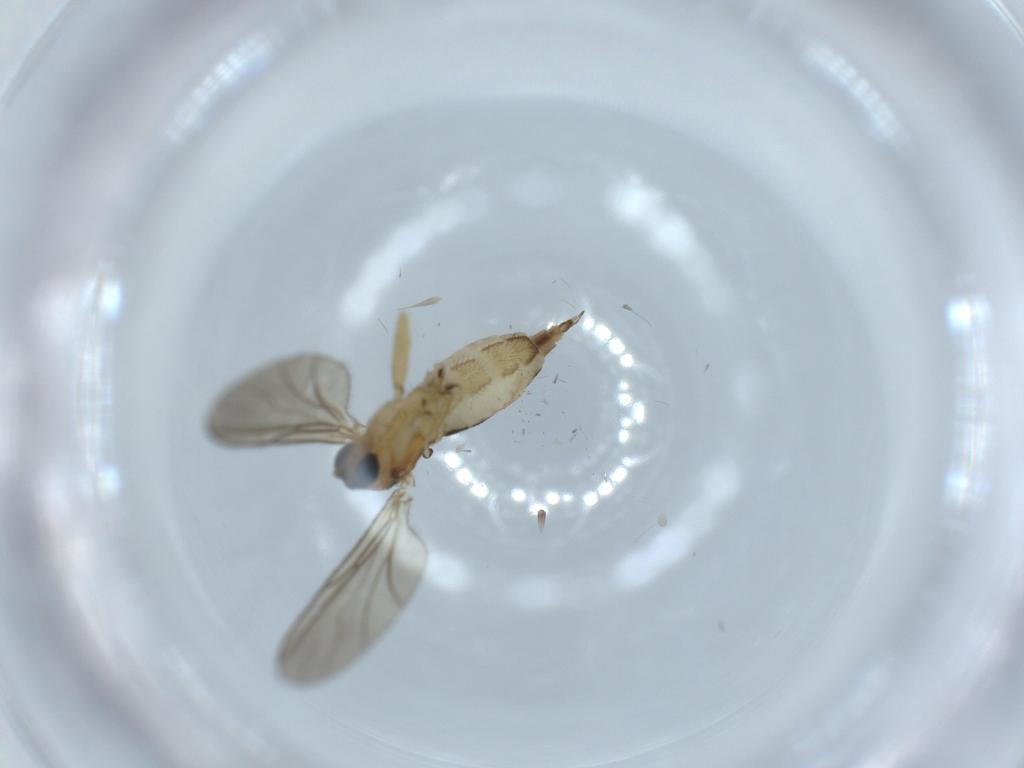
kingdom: Animalia
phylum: Arthropoda
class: Insecta
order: Diptera
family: Sciaridae
